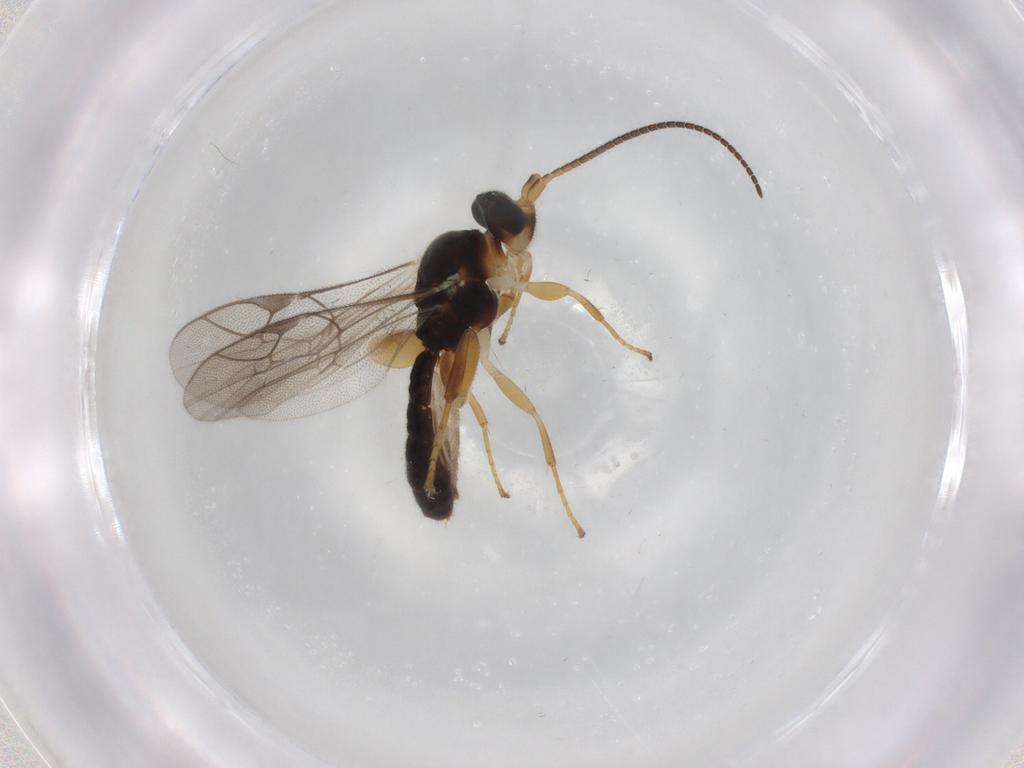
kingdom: Animalia
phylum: Arthropoda
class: Insecta
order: Hymenoptera
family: Ichneumonidae
